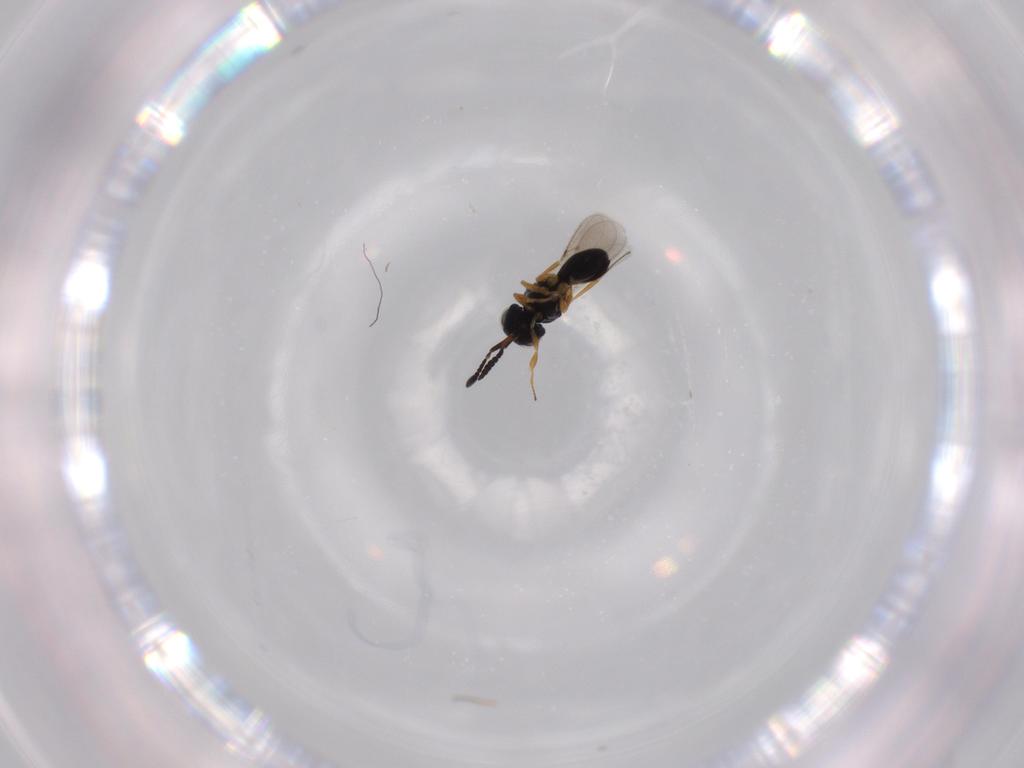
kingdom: Animalia
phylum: Arthropoda
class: Insecta
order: Hymenoptera
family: Scelionidae
